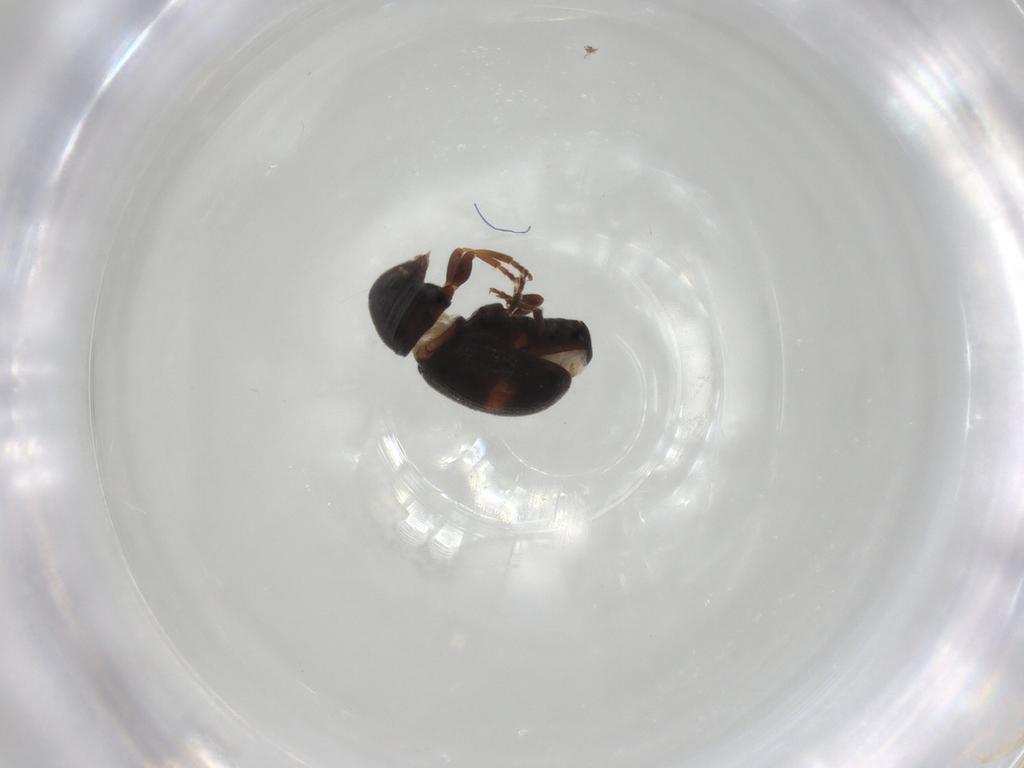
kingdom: Animalia
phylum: Arthropoda
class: Insecta
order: Coleoptera
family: Anthribidae
